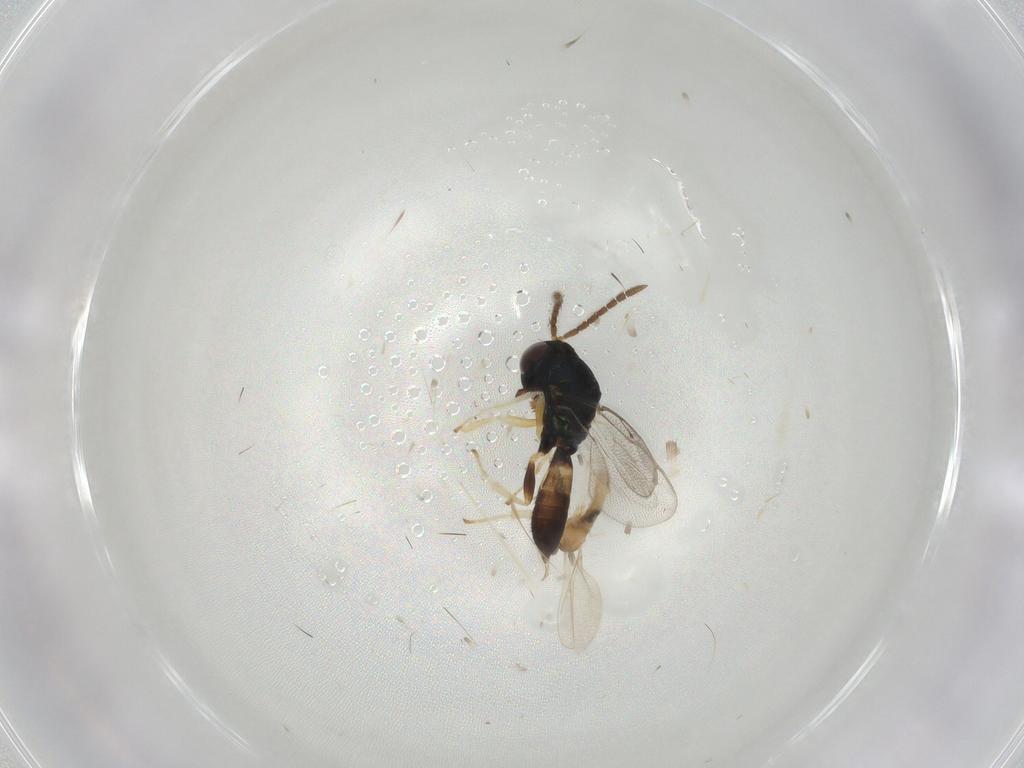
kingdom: Animalia
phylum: Arthropoda
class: Insecta
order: Hymenoptera
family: Pteromalidae
